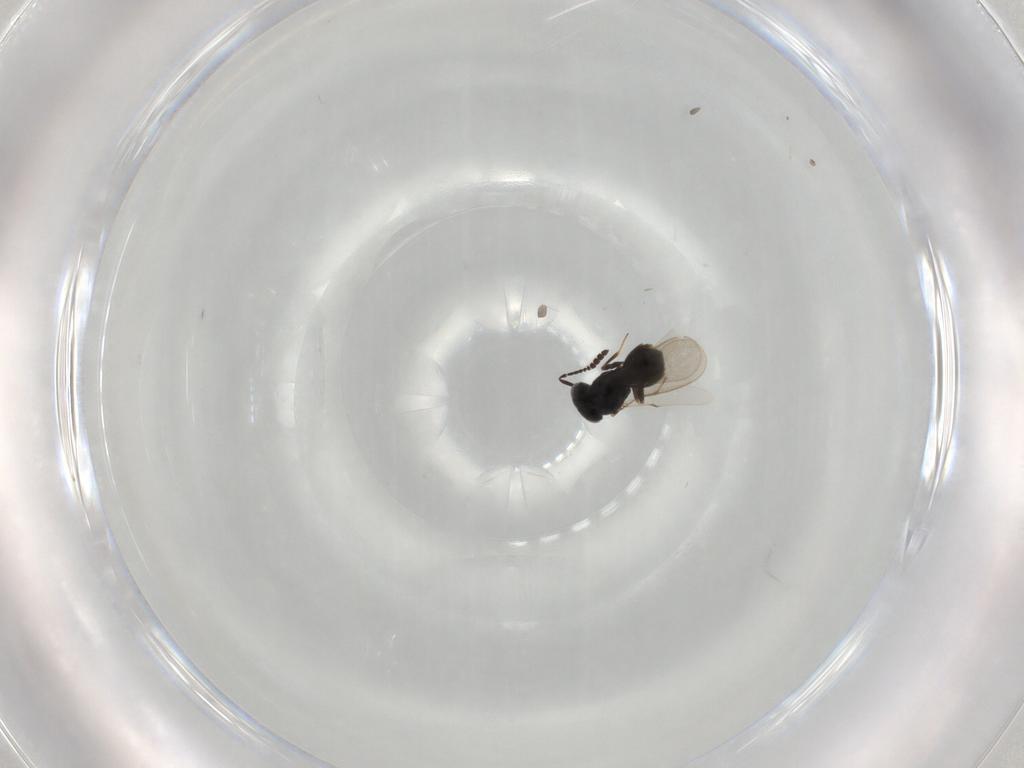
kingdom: Animalia
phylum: Arthropoda
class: Insecta
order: Hymenoptera
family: Scelionidae
